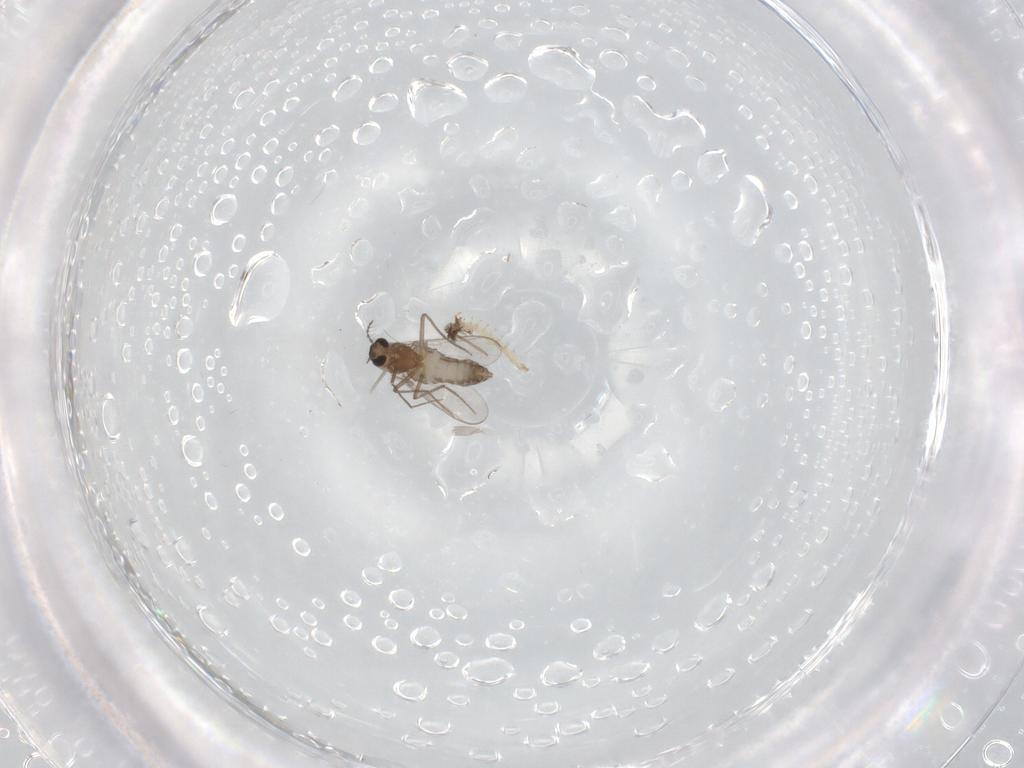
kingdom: Animalia
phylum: Arthropoda
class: Insecta
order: Diptera
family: Chironomidae
